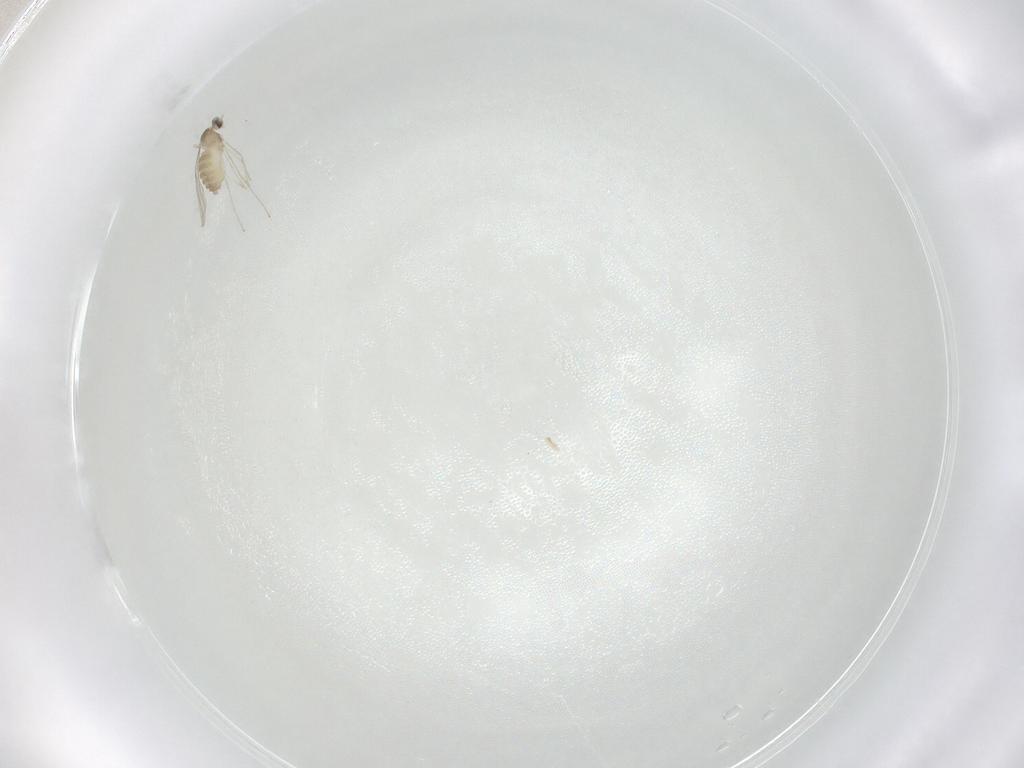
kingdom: Animalia
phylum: Arthropoda
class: Insecta
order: Diptera
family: Cecidomyiidae
